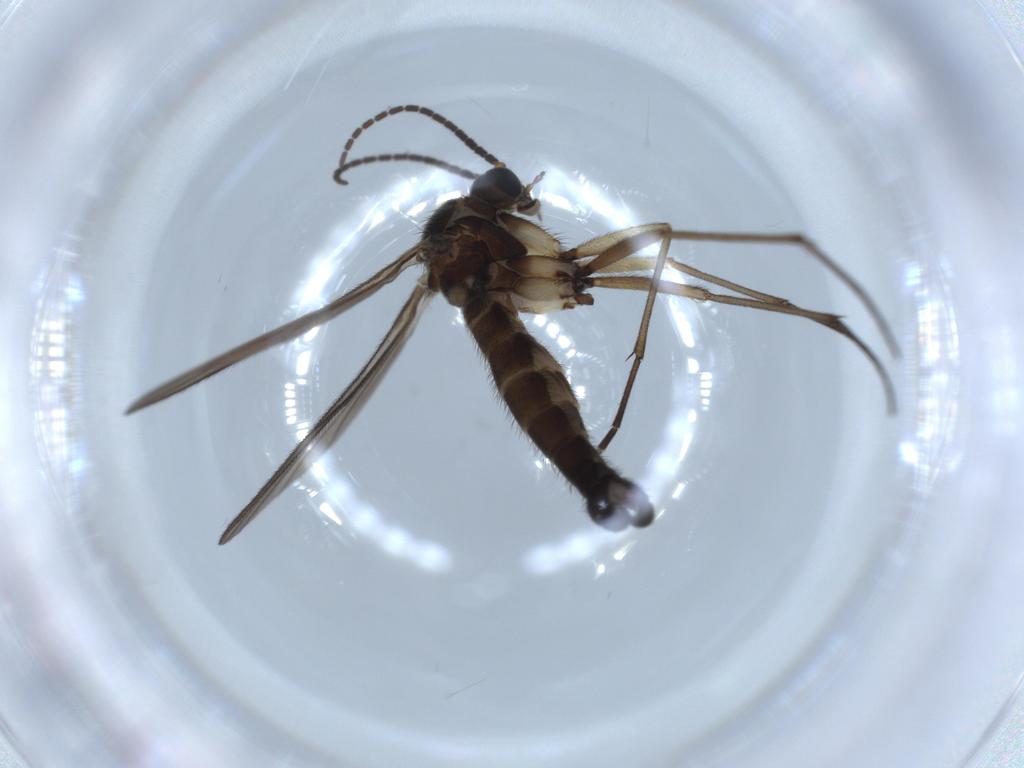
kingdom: Animalia
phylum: Arthropoda
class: Insecta
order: Diptera
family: Sciaridae
